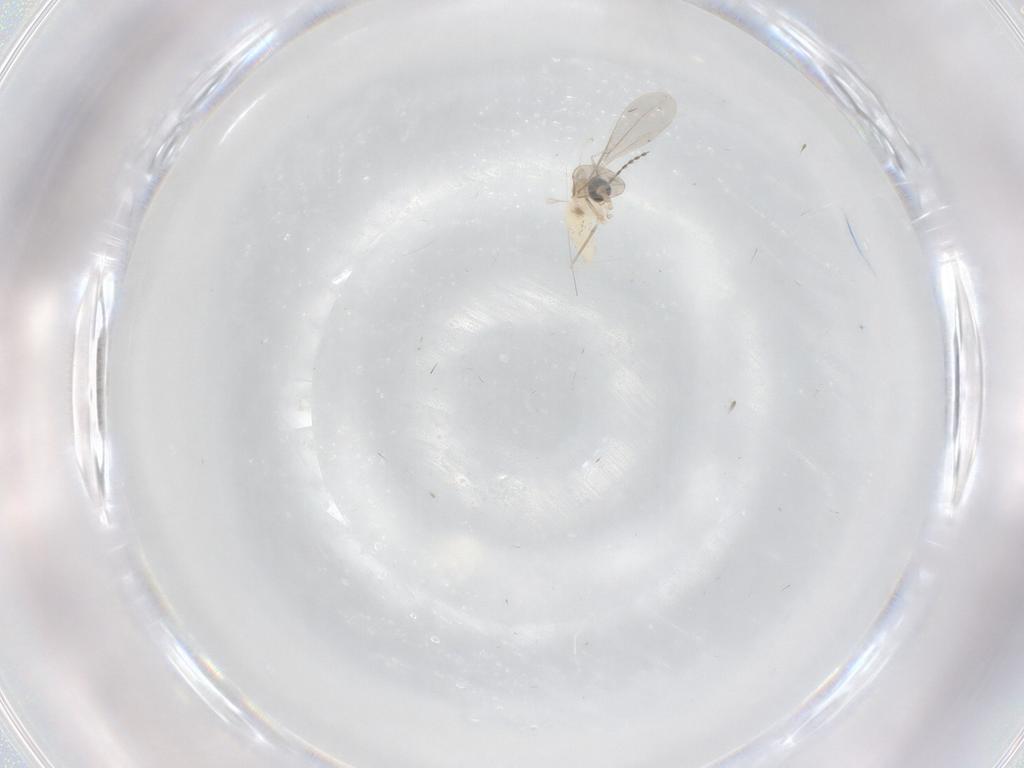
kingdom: Animalia
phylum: Arthropoda
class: Insecta
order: Diptera
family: Cecidomyiidae
